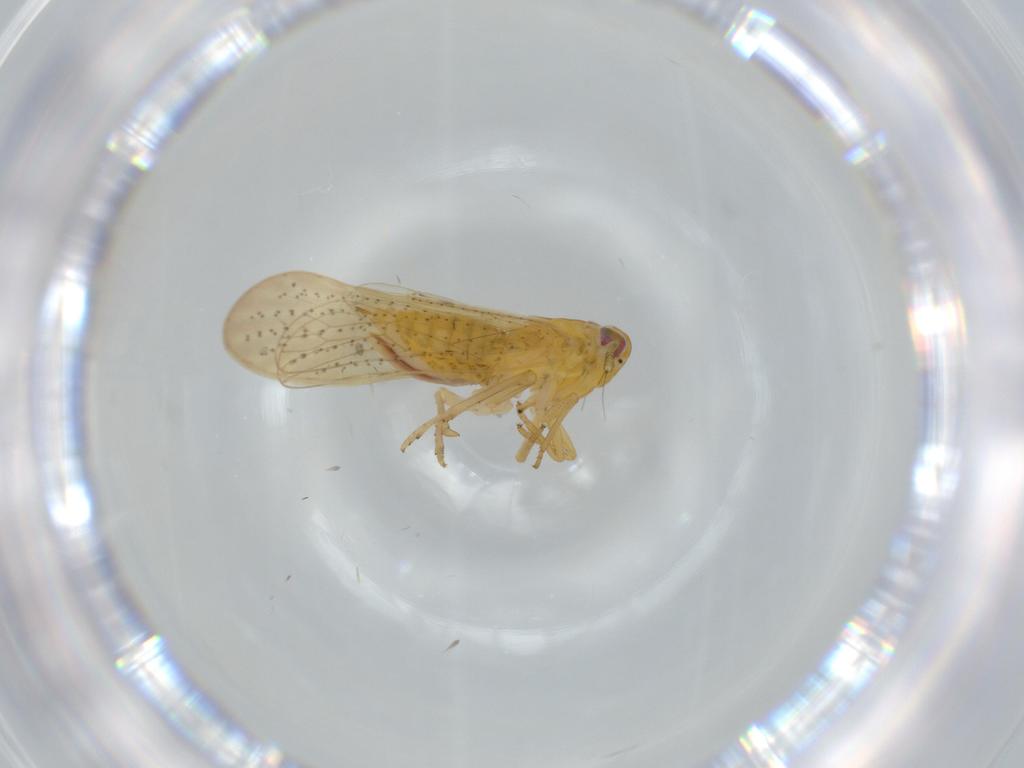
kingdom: Animalia
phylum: Arthropoda
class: Insecta
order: Hemiptera
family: Delphacidae
